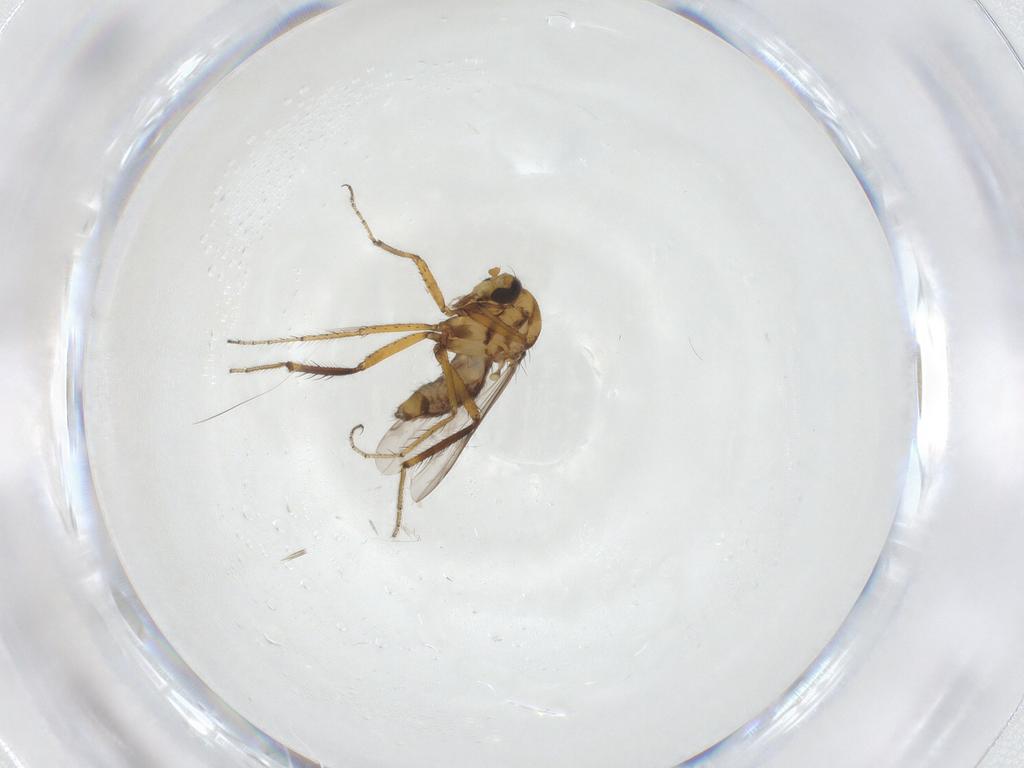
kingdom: Animalia
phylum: Arthropoda
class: Insecta
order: Diptera
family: Ceratopogonidae
